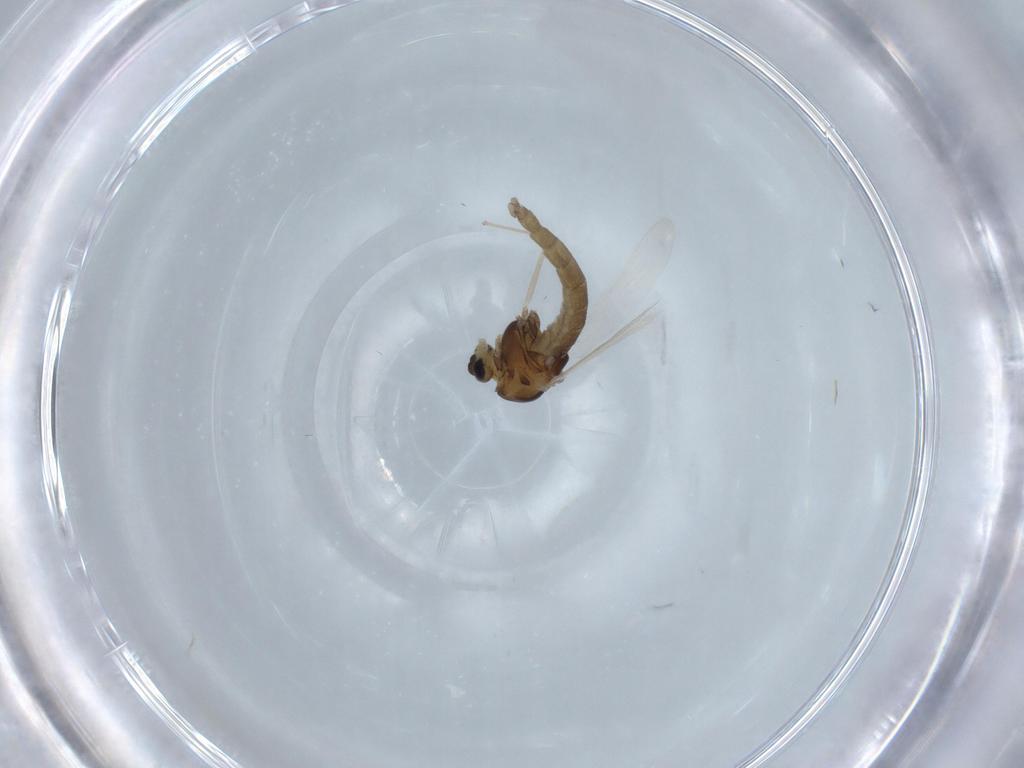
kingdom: Animalia
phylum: Arthropoda
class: Insecta
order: Diptera
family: Chironomidae
